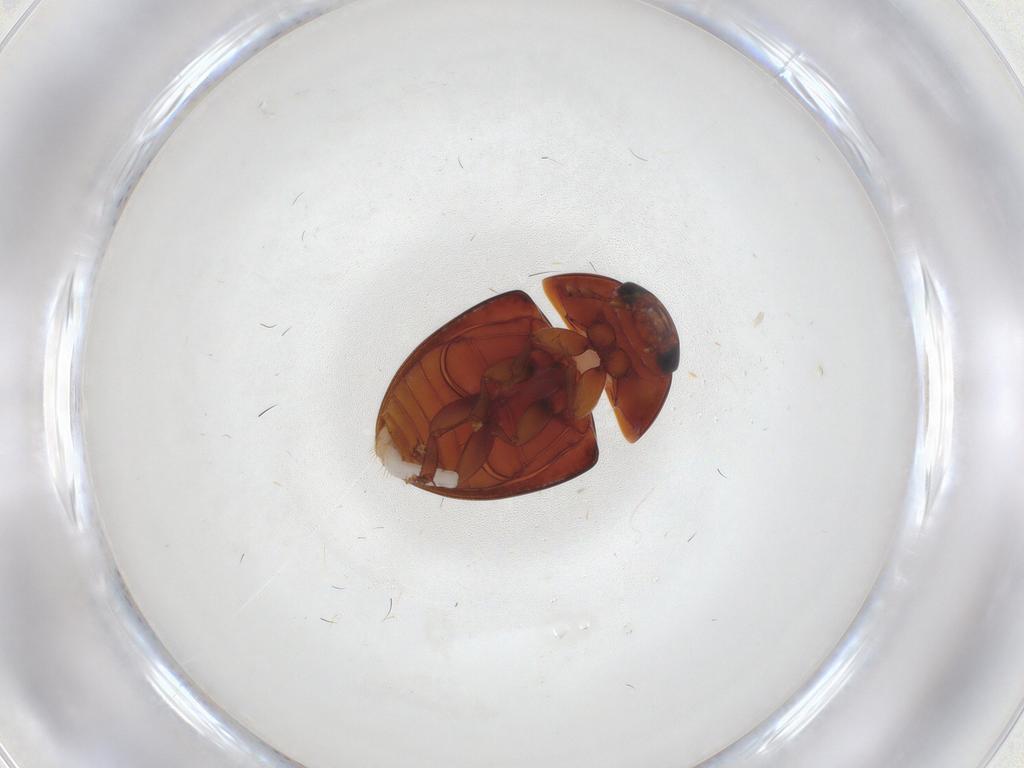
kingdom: Animalia
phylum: Arthropoda
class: Insecta
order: Coleoptera
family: Phalacridae
